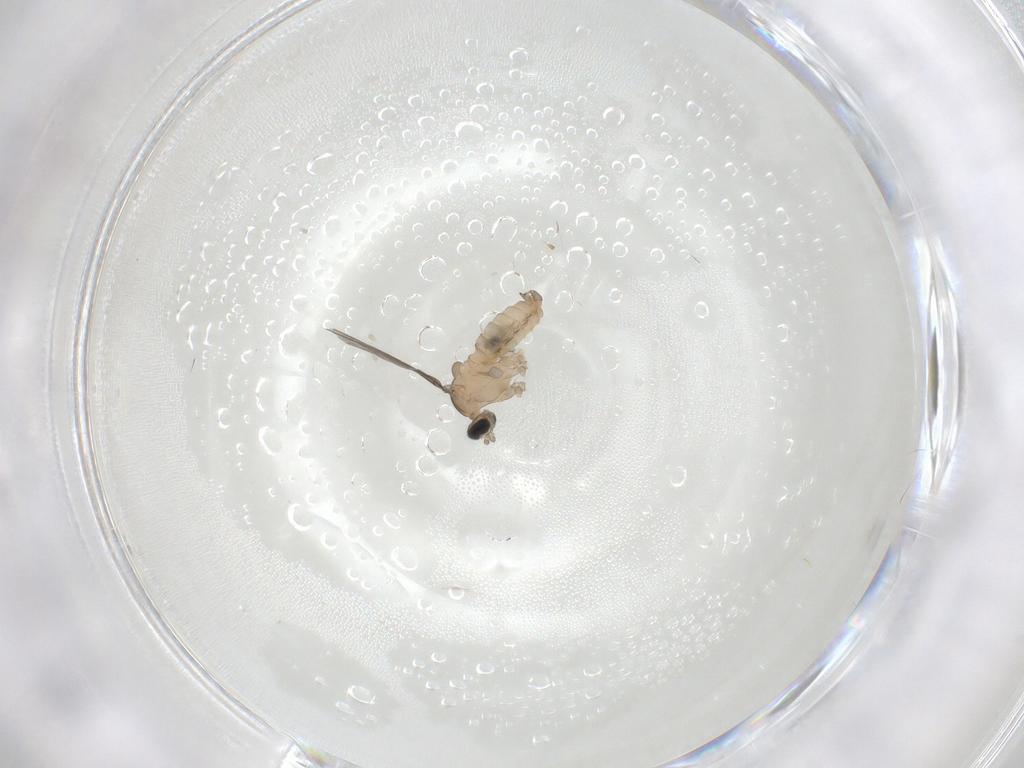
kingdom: Animalia
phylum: Arthropoda
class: Insecta
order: Diptera
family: Cecidomyiidae
